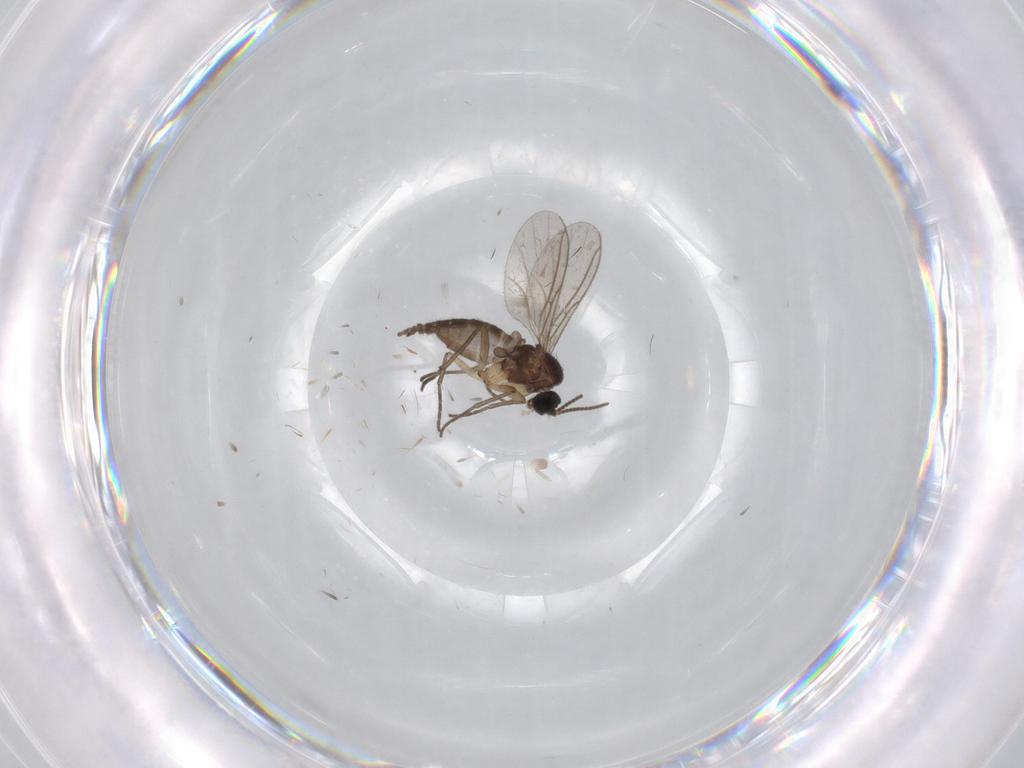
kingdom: Animalia
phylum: Arthropoda
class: Insecta
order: Diptera
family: Sciaridae
